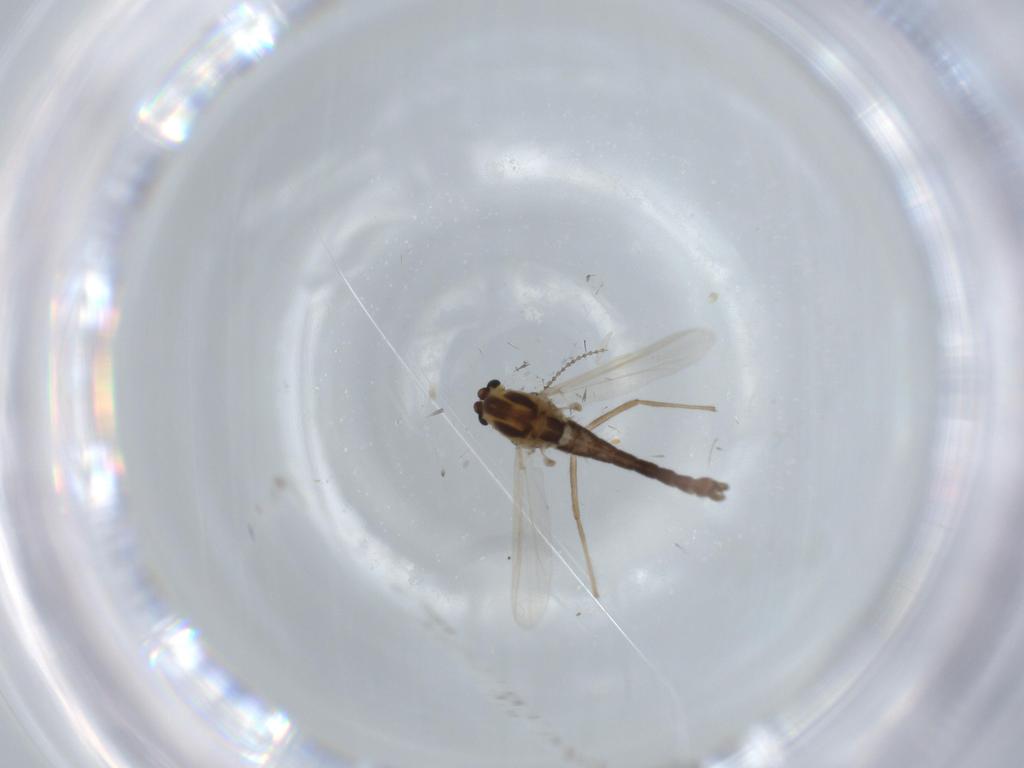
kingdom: Animalia
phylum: Arthropoda
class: Insecta
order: Diptera
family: Chironomidae
